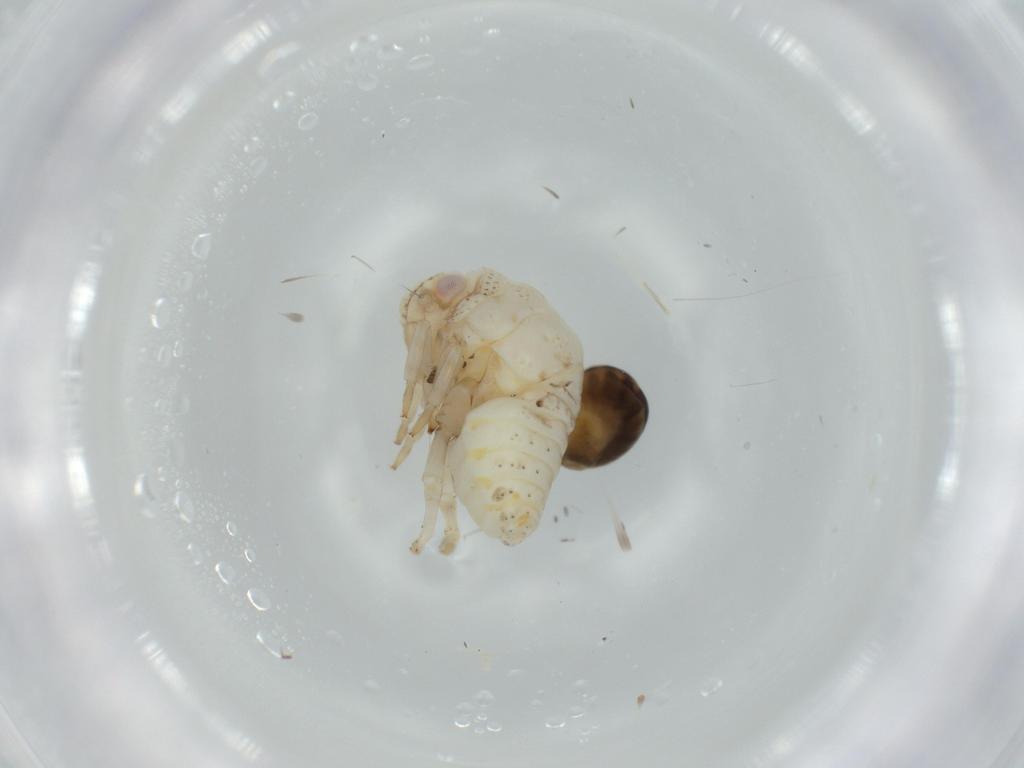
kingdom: Animalia
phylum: Arthropoda
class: Insecta
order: Hemiptera
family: Acanaloniidae
